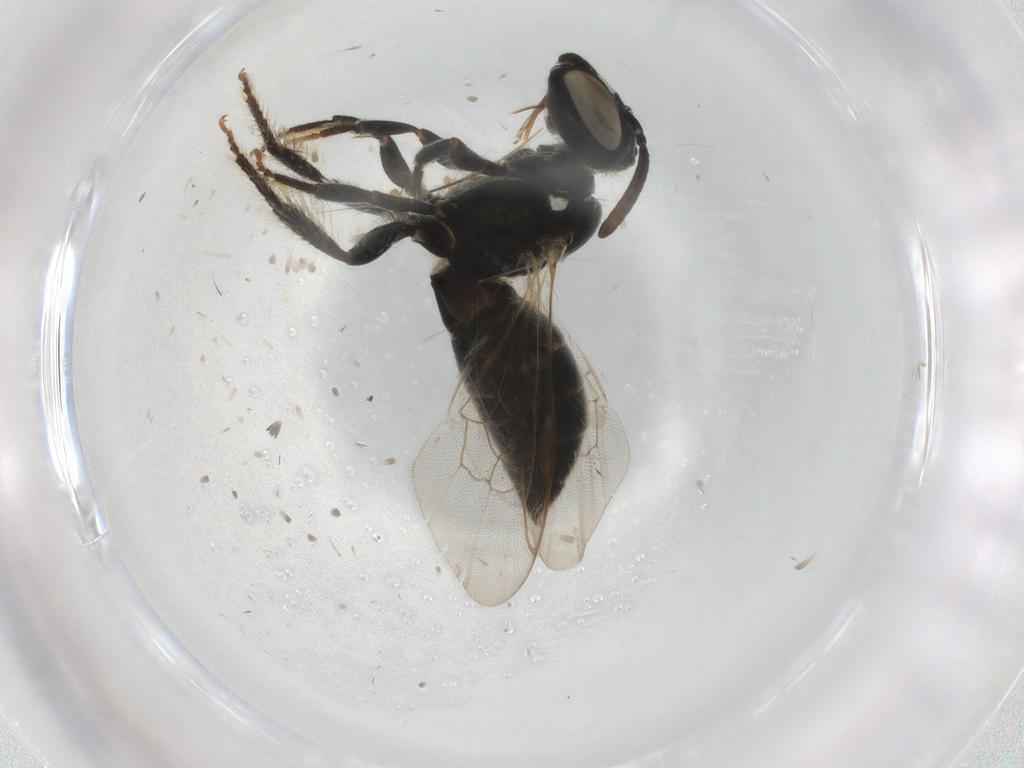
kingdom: Animalia
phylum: Arthropoda
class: Insecta
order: Hymenoptera
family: Apidae
